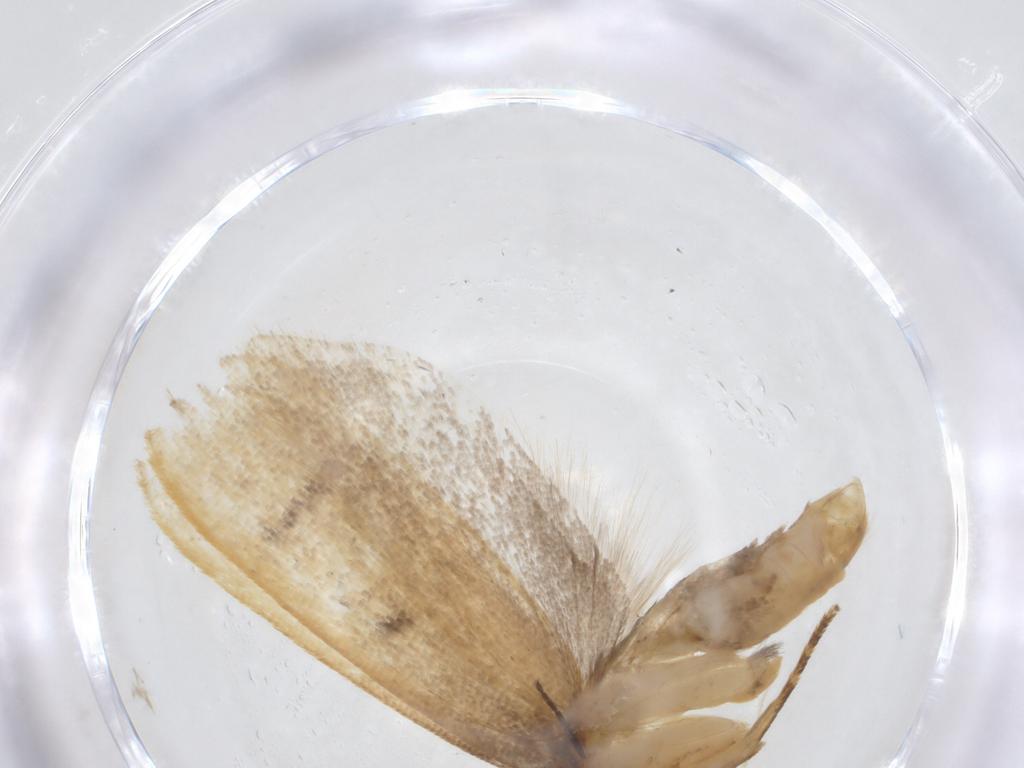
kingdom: Animalia
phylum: Arthropoda
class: Insecta
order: Lepidoptera
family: Lecithoceridae
